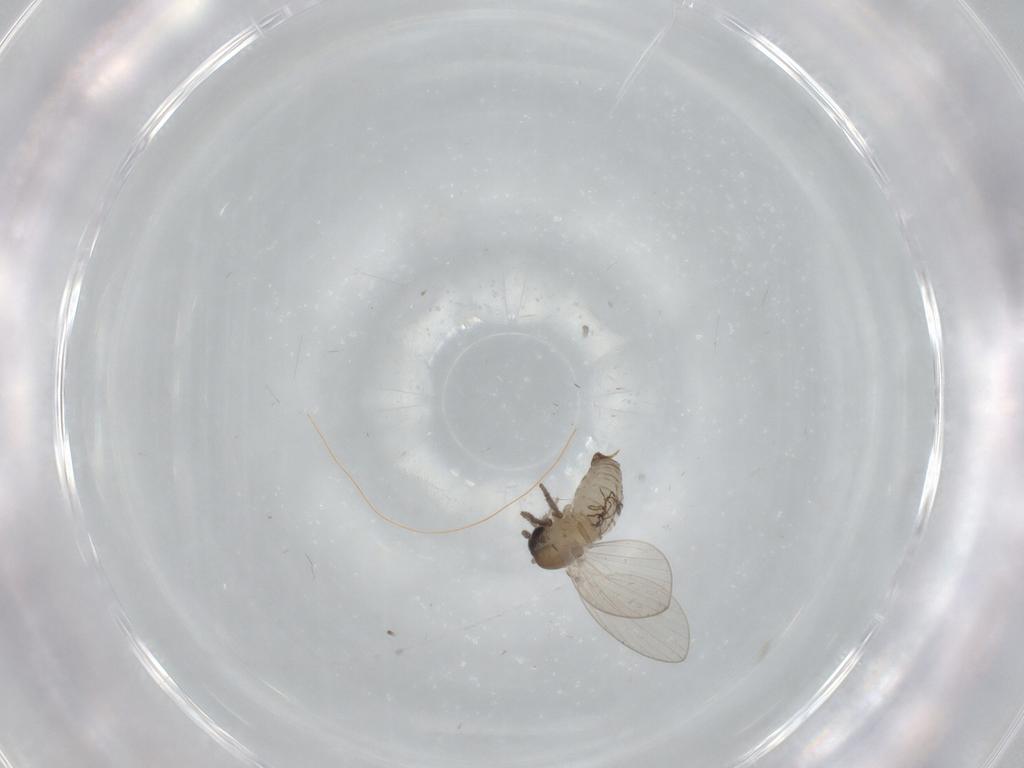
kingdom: Animalia
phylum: Arthropoda
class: Insecta
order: Diptera
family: Psychodidae
